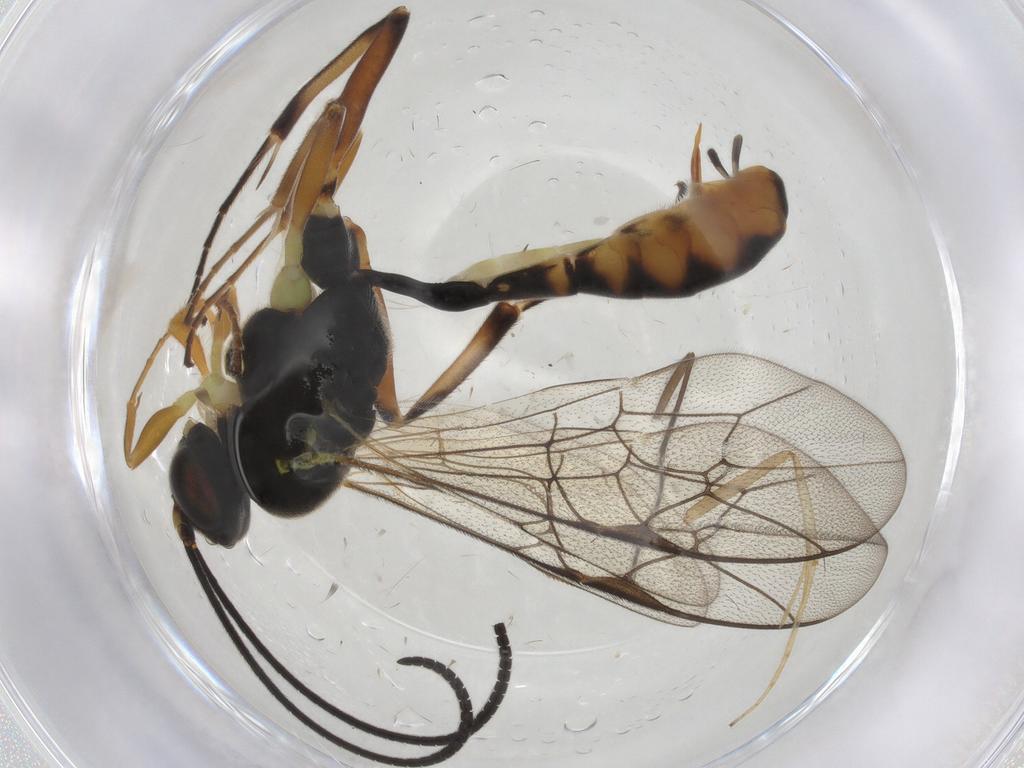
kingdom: Animalia
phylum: Arthropoda
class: Insecta
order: Hymenoptera
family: Ichneumonidae
